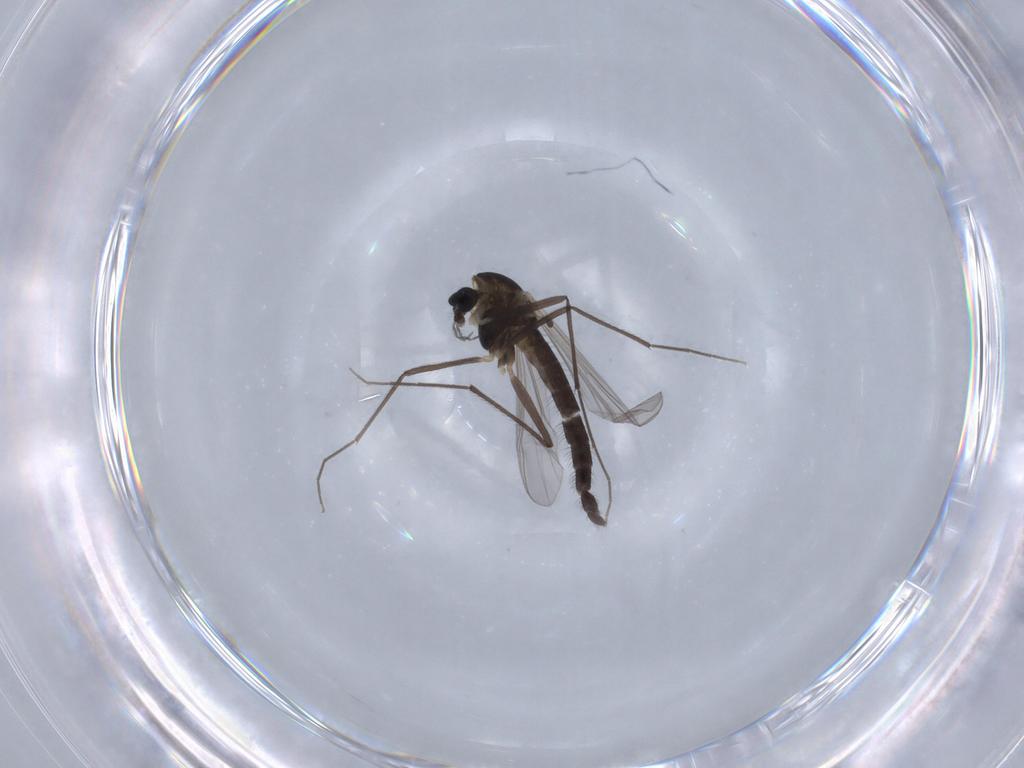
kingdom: Animalia
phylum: Arthropoda
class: Insecta
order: Diptera
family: Chironomidae
